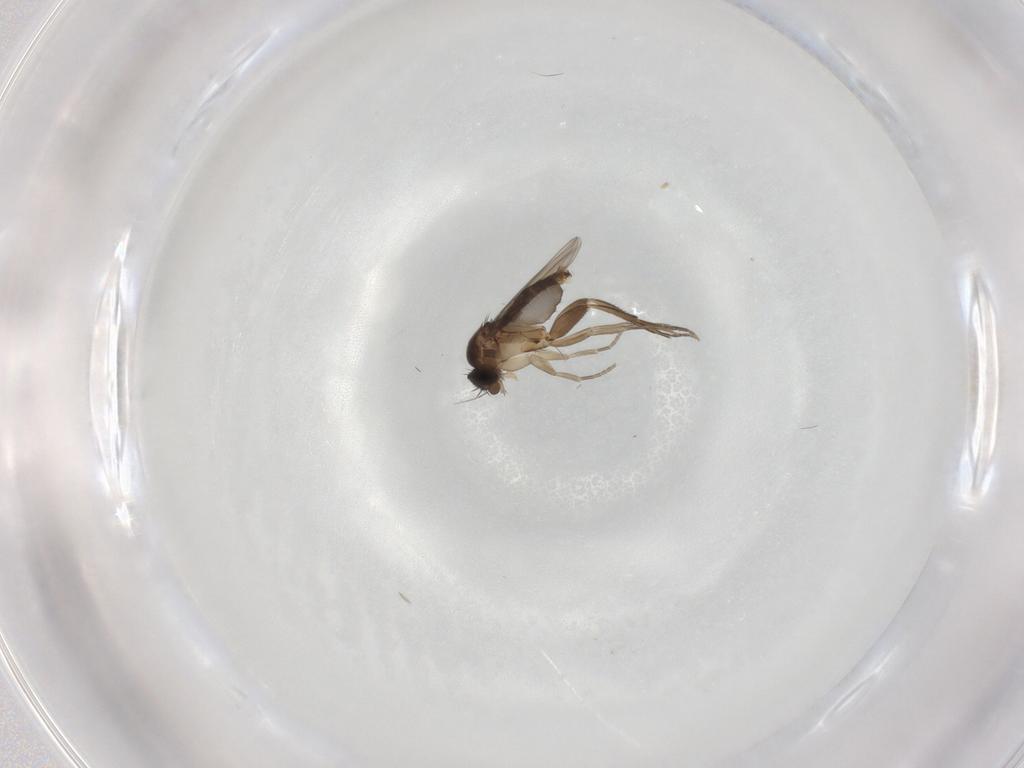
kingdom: Animalia
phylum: Arthropoda
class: Insecta
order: Diptera
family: Phoridae
